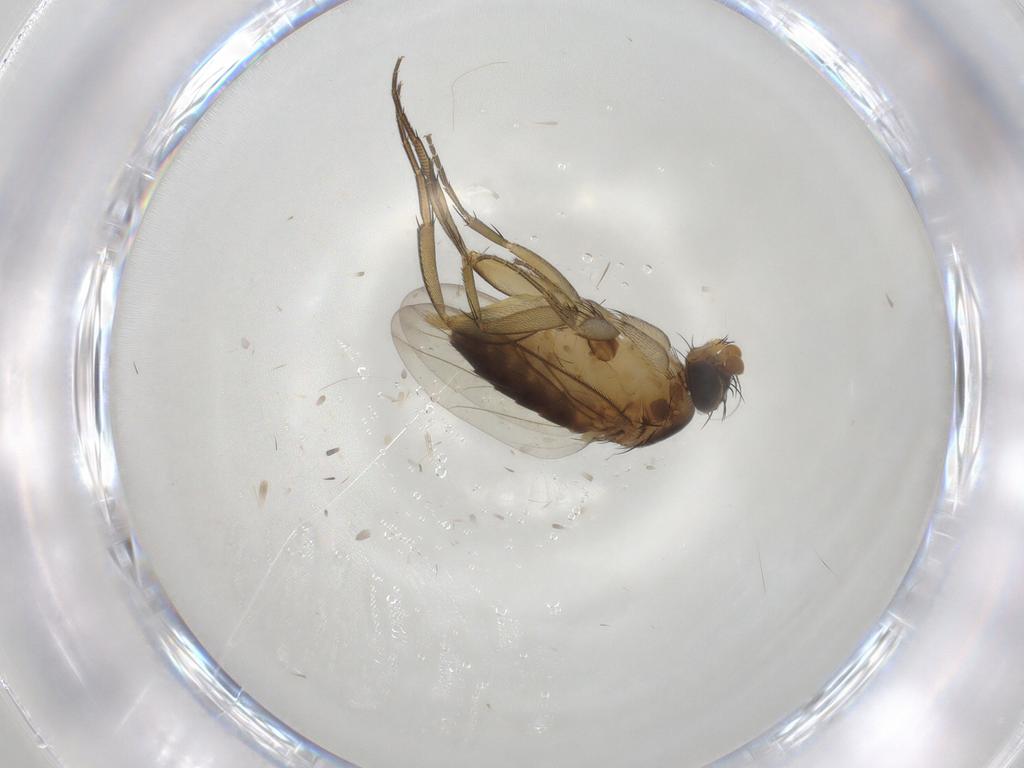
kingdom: Animalia
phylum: Arthropoda
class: Insecta
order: Diptera
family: Phoridae
